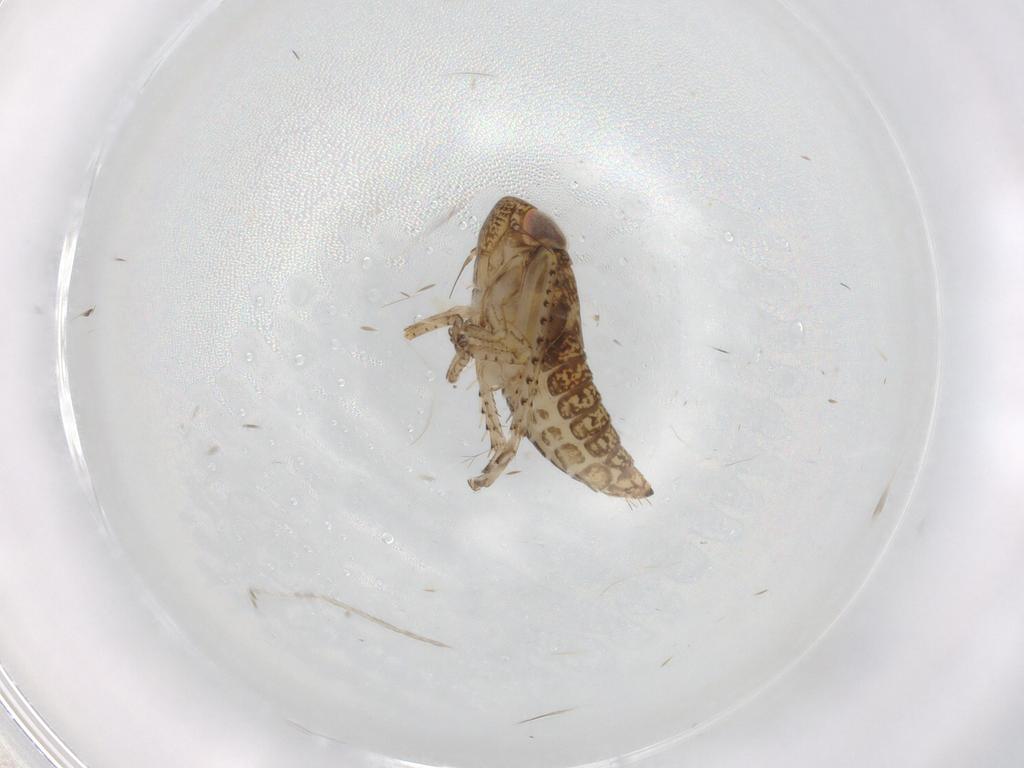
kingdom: Animalia
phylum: Arthropoda
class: Insecta
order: Hemiptera
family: Cicadellidae
